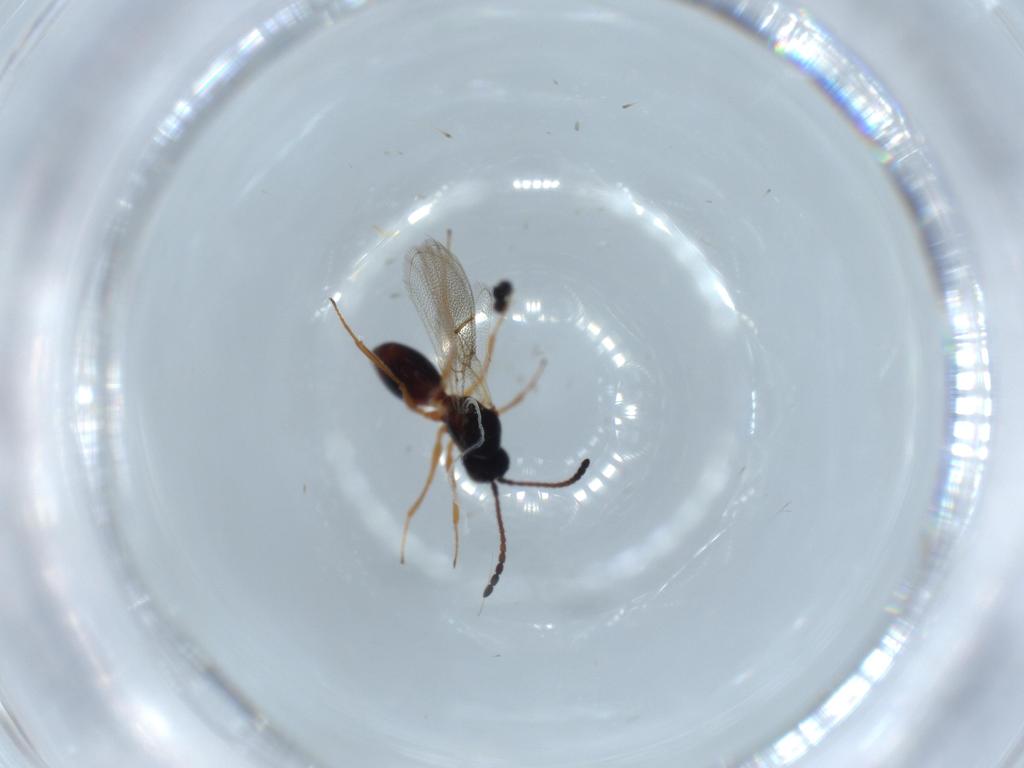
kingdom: Animalia
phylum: Arthropoda
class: Insecta
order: Hymenoptera
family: Figitidae
